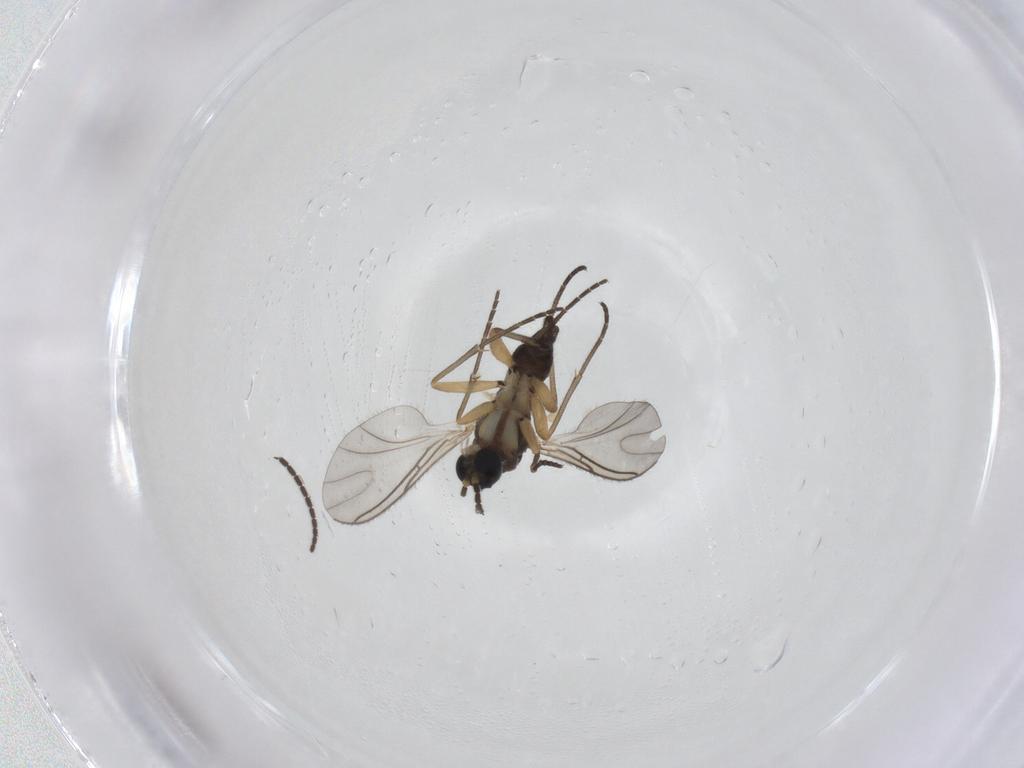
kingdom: Animalia
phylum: Arthropoda
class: Insecta
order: Diptera
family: Sciaridae
